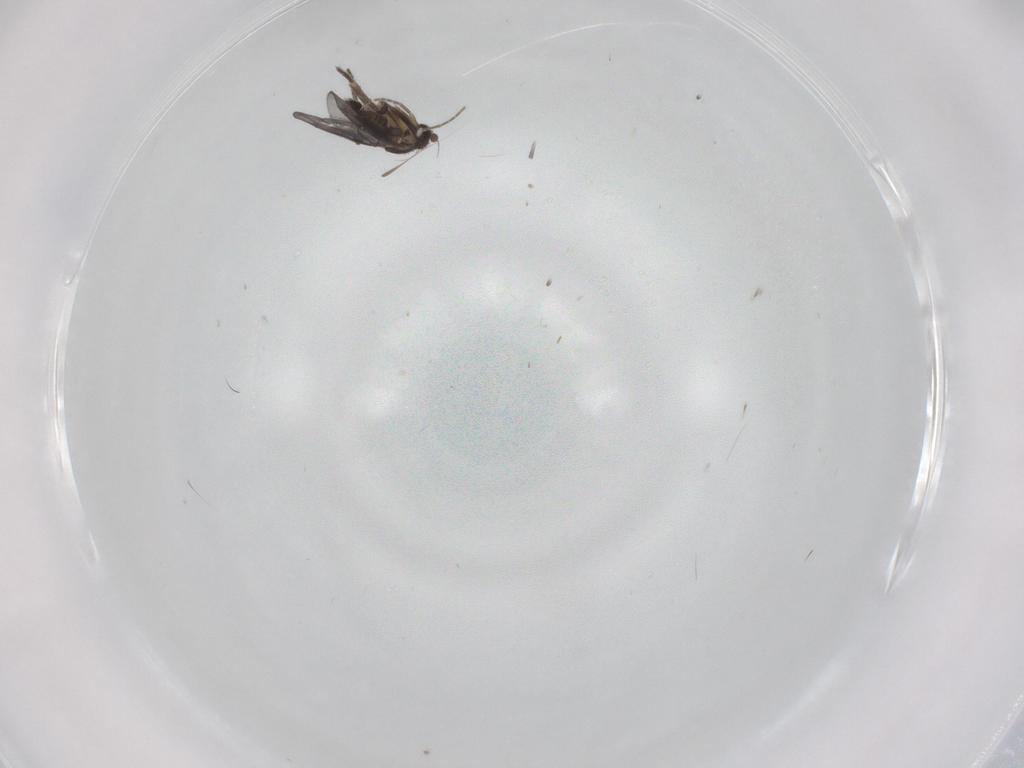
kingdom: Animalia
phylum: Arthropoda
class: Insecta
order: Diptera
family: Phoridae
